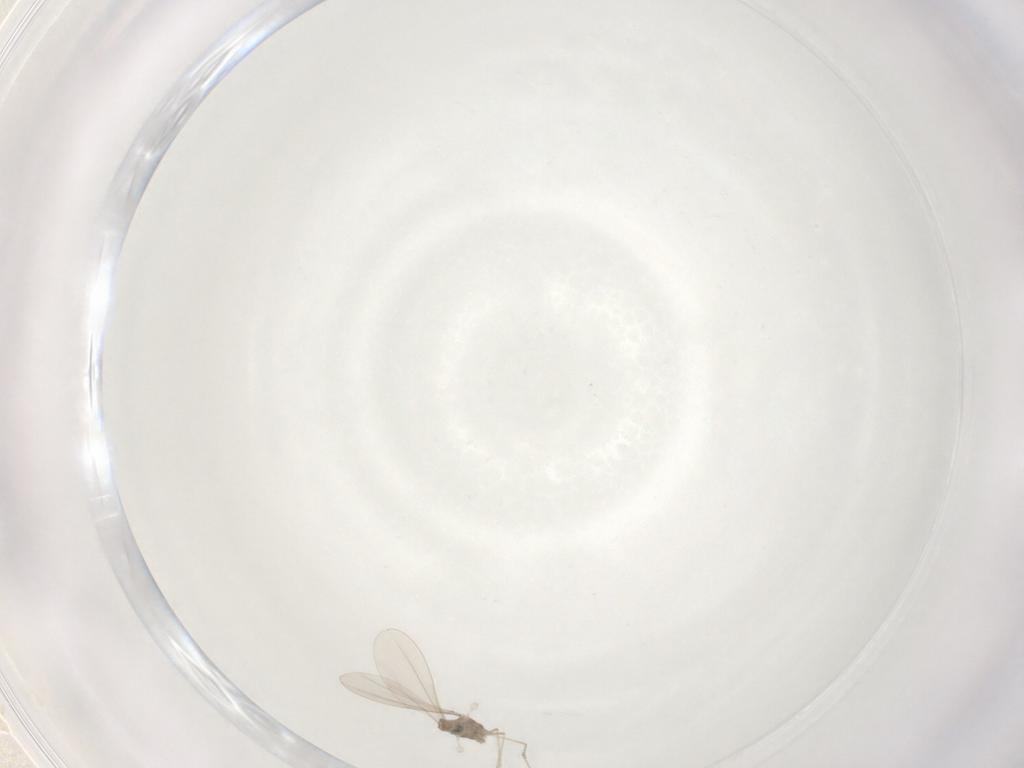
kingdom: Animalia
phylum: Arthropoda
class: Insecta
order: Diptera
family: Cecidomyiidae
